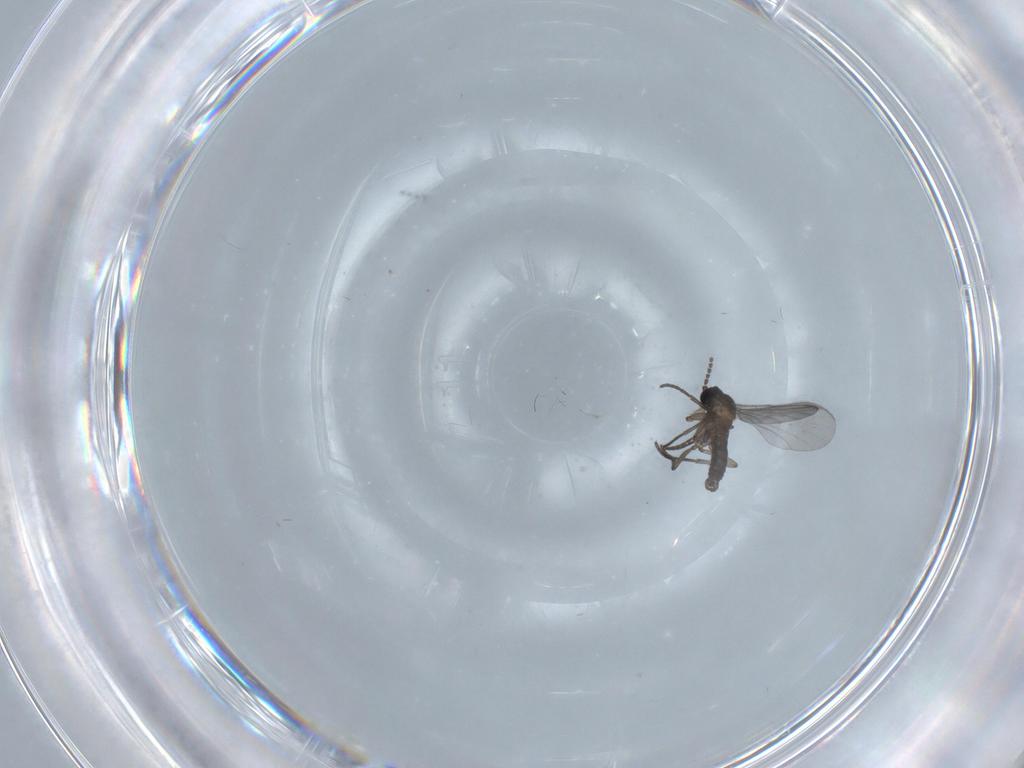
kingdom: Animalia
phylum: Arthropoda
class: Insecta
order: Diptera
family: Dolichopodidae
